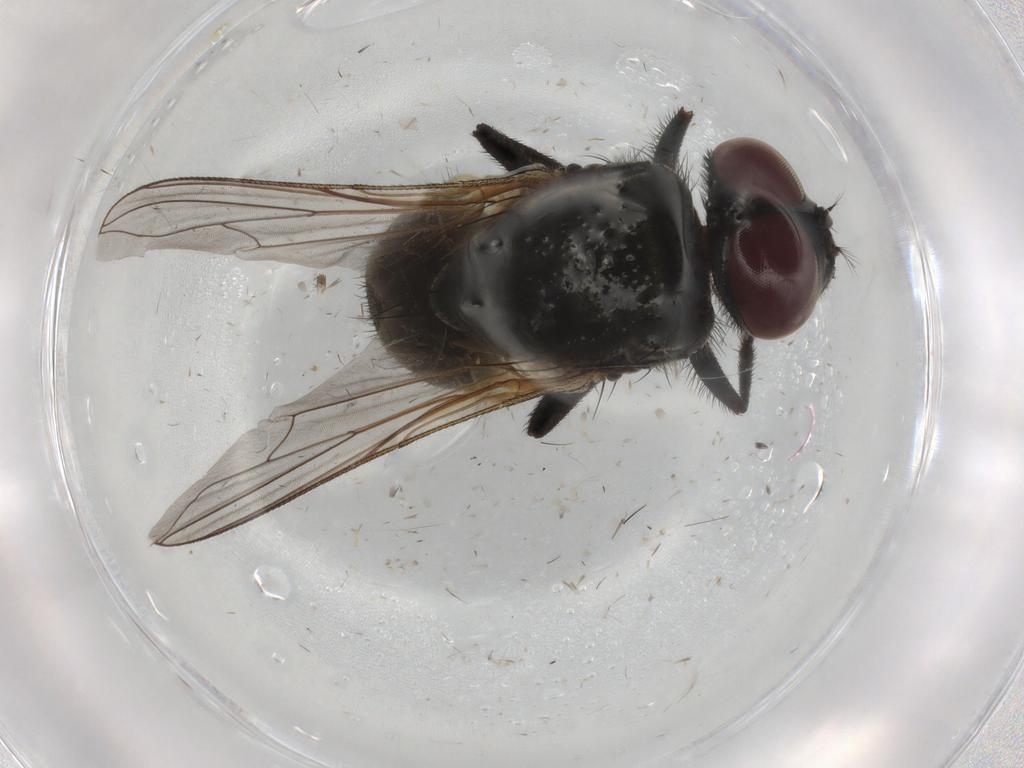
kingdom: Animalia
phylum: Arthropoda
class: Insecta
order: Diptera
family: Muscidae
